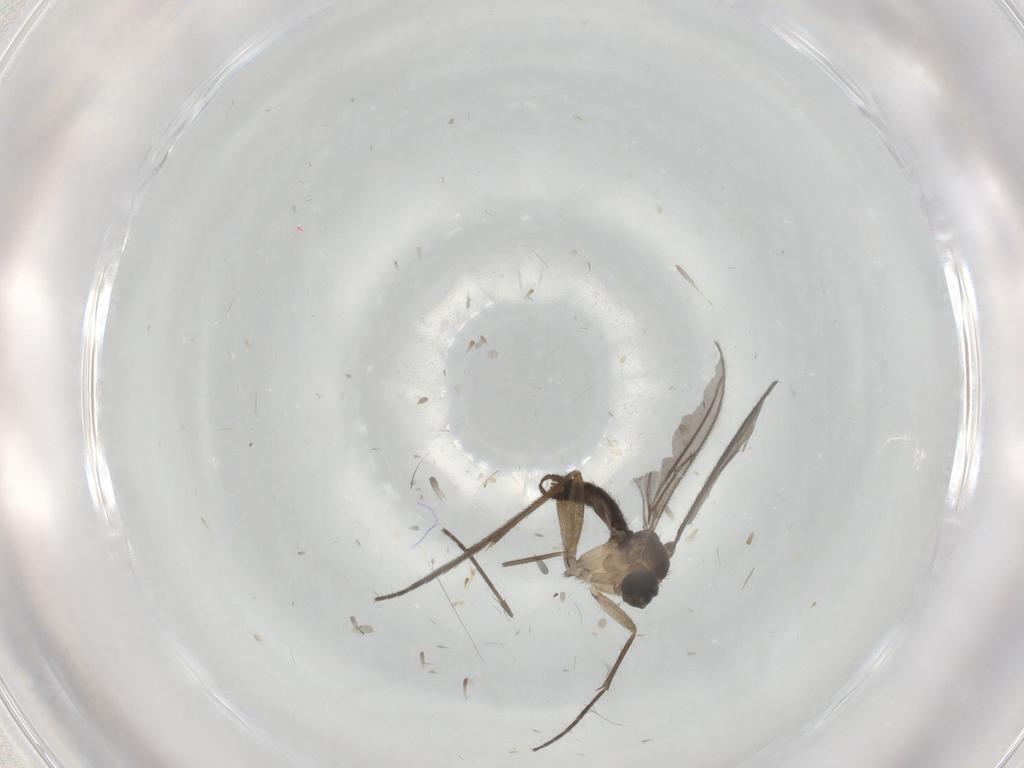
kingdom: Animalia
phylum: Arthropoda
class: Insecta
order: Diptera
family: Sciaridae
